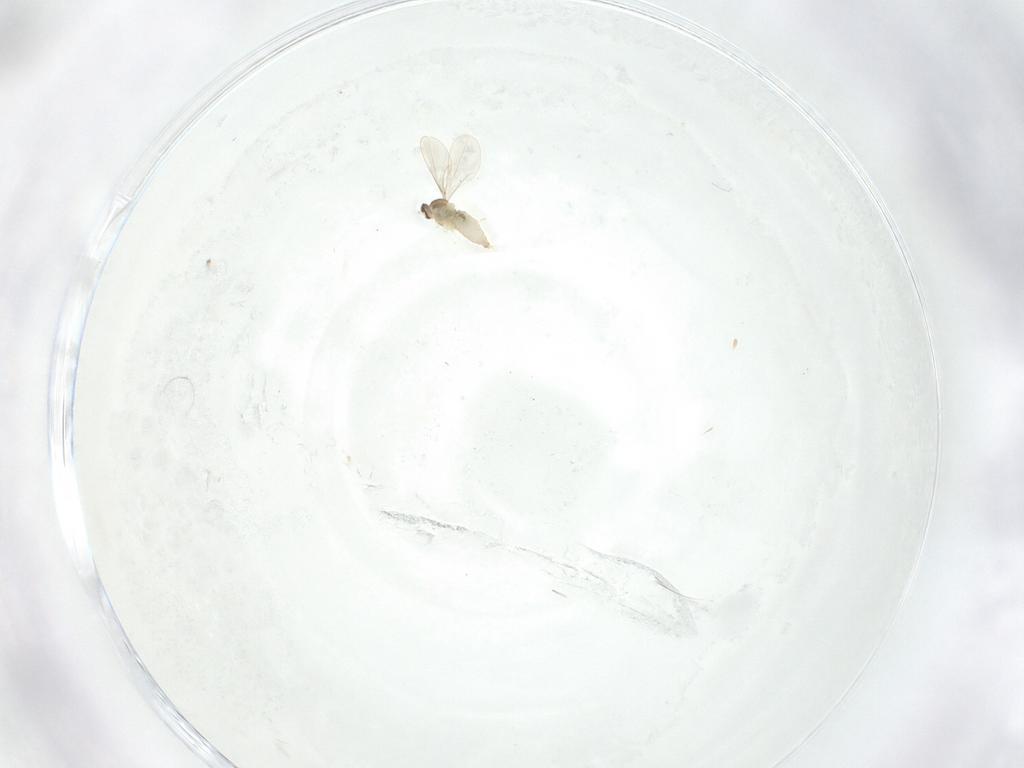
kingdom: Animalia
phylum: Arthropoda
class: Insecta
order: Diptera
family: Cecidomyiidae
